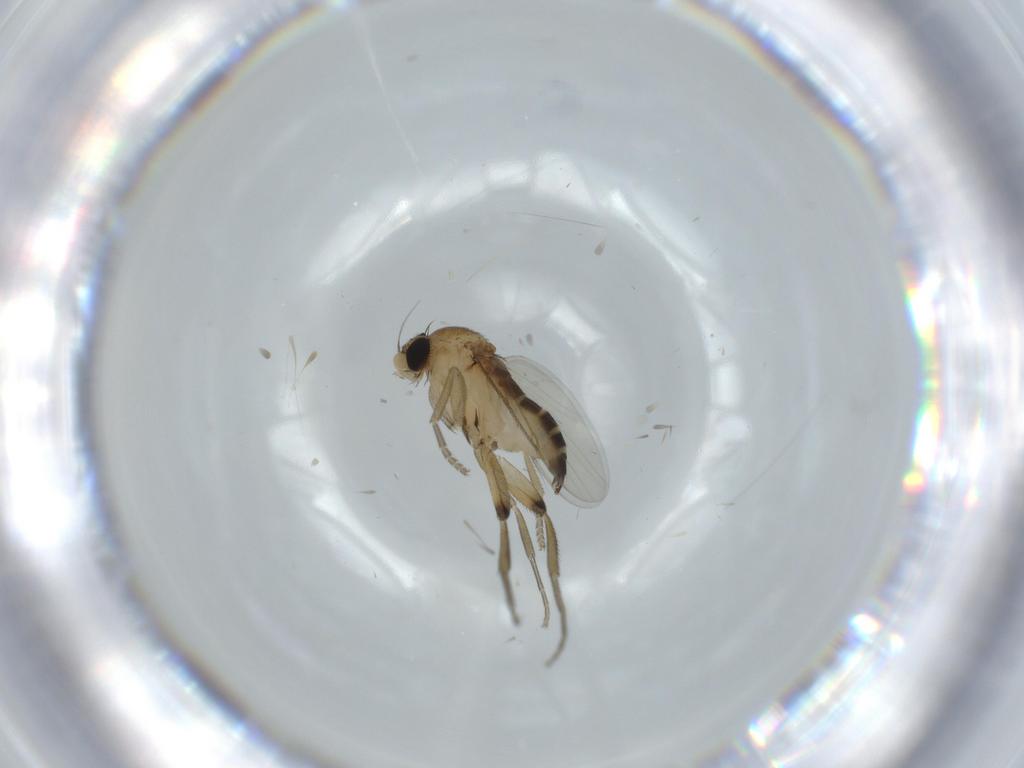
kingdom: Animalia
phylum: Arthropoda
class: Insecta
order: Diptera
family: Phoridae
